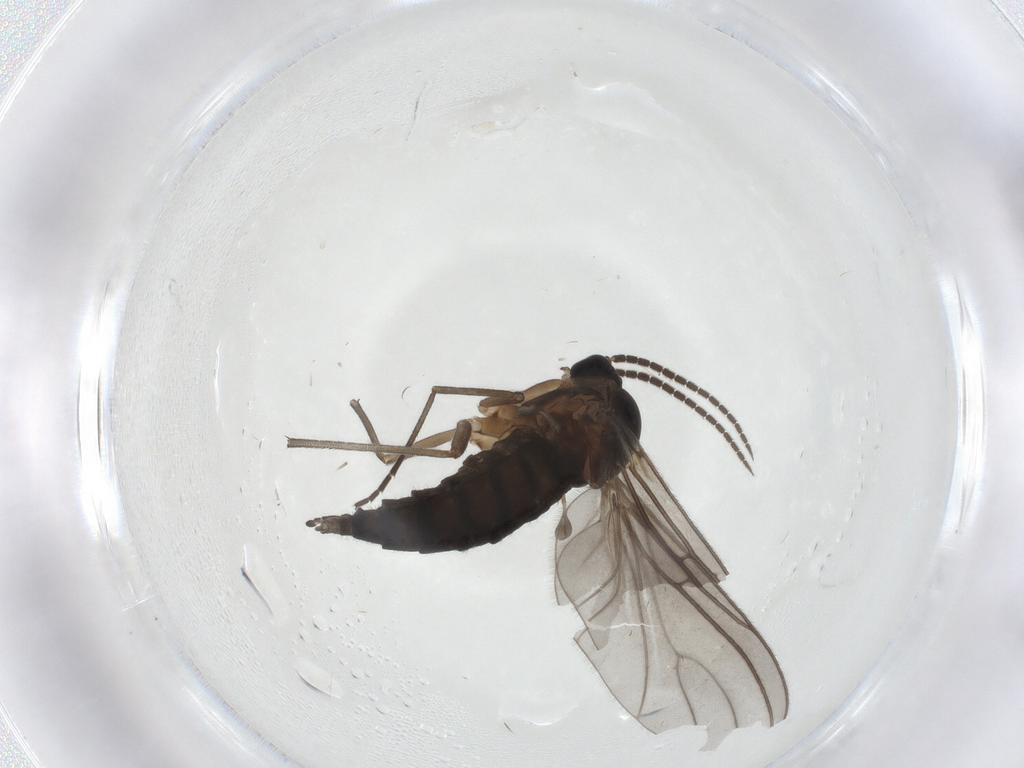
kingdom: Animalia
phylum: Arthropoda
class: Insecta
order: Diptera
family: Sciaridae
